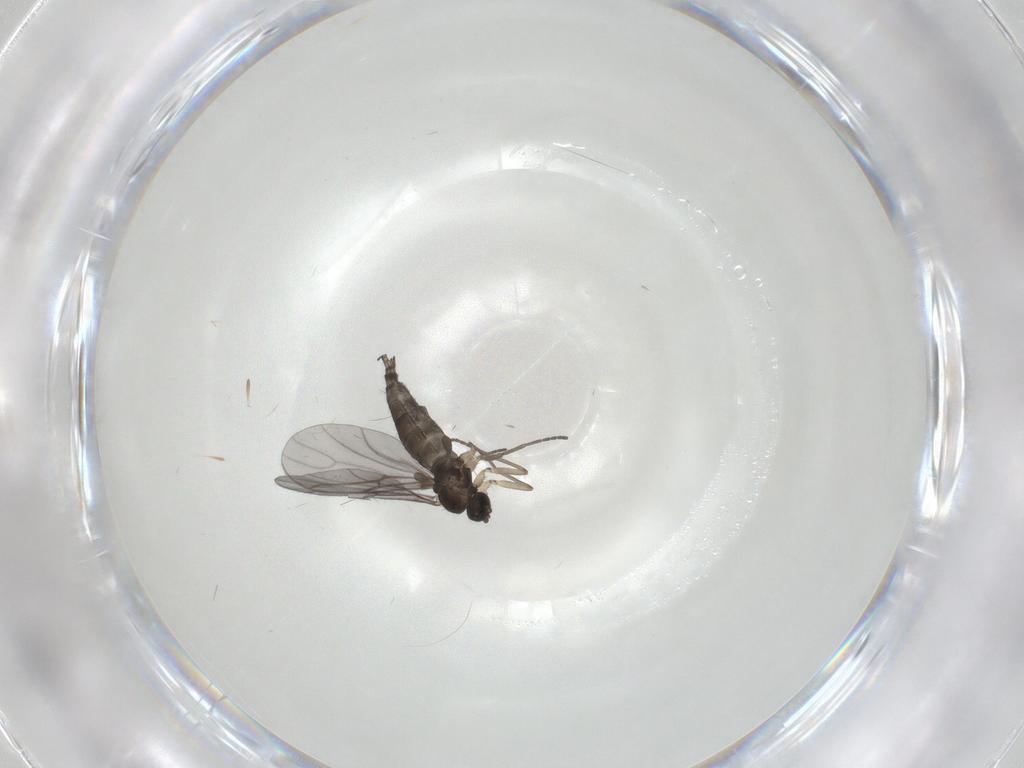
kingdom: Animalia
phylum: Arthropoda
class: Insecta
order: Diptera
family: Sciaridae
